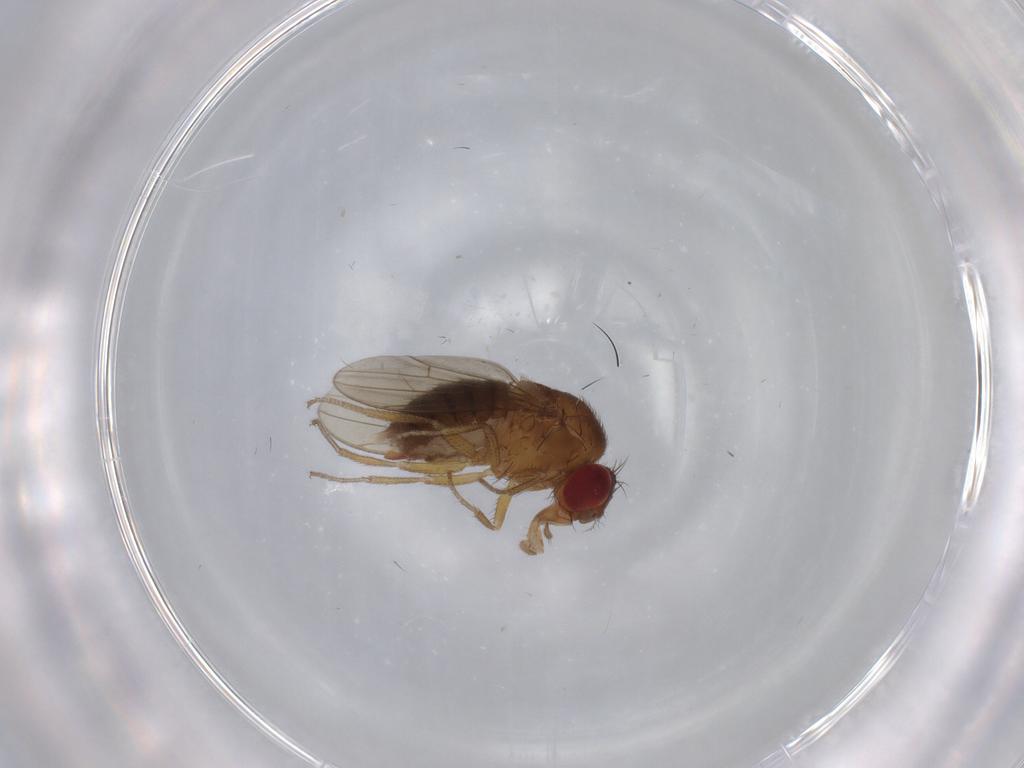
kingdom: Animalia
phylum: Arthropoda
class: Insecta
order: Diptera
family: Drosophilidae
